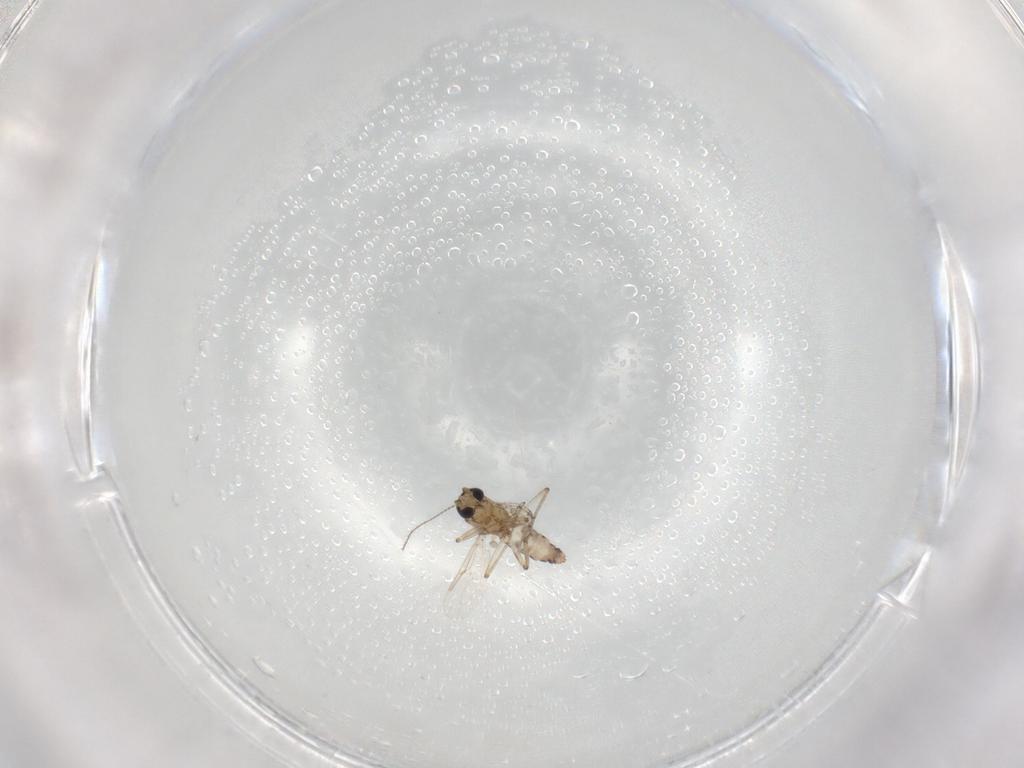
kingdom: Animalia
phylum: Arthropoda
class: Insecta
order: Diptera
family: Ceratopogonidae
